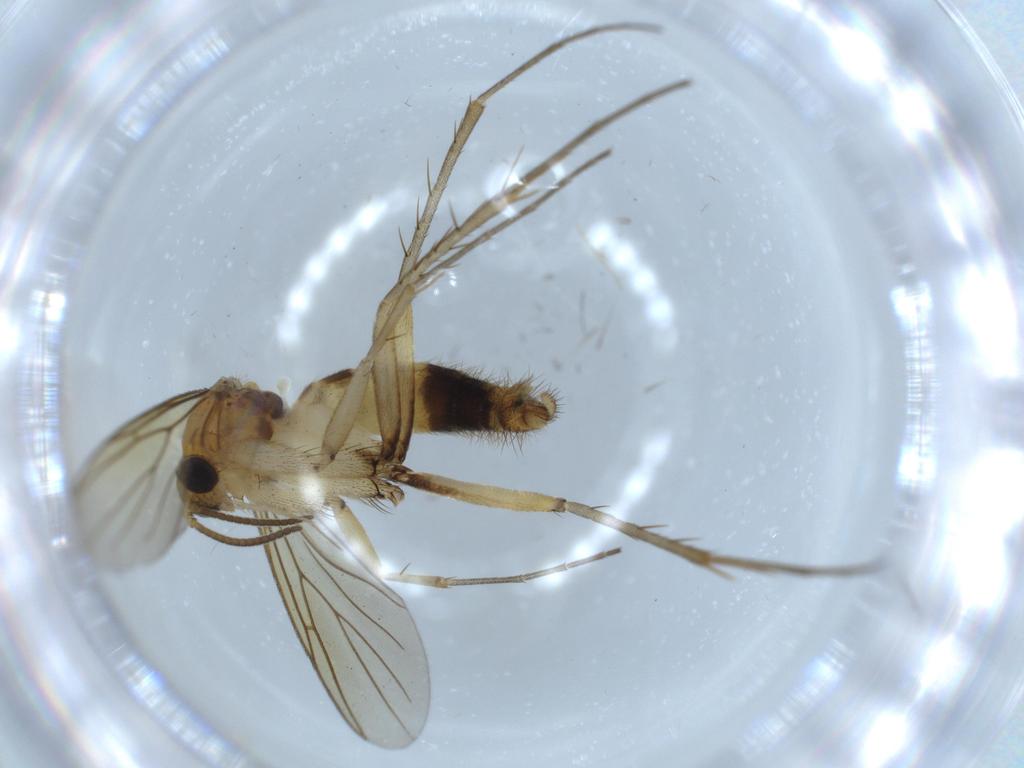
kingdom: Animalia
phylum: Arthropoda
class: Insecta
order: Diptera
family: Mycetophilidae
